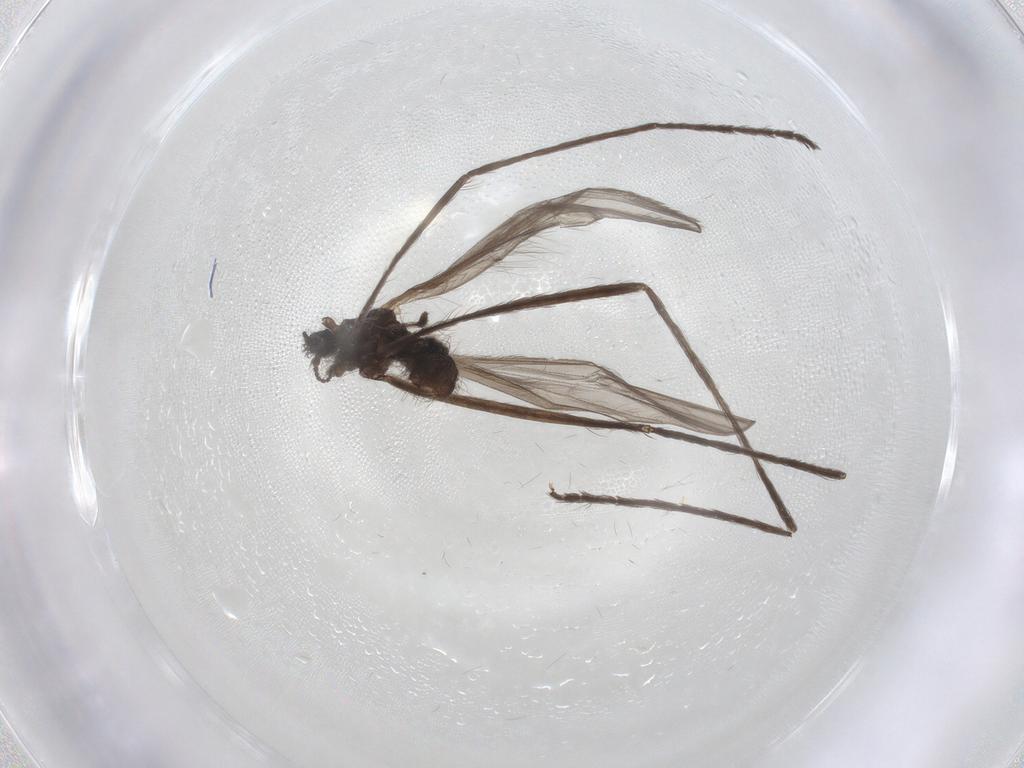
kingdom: Animalia
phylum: Arthropoda
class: Insecta
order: Diptera
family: Limoniidae
